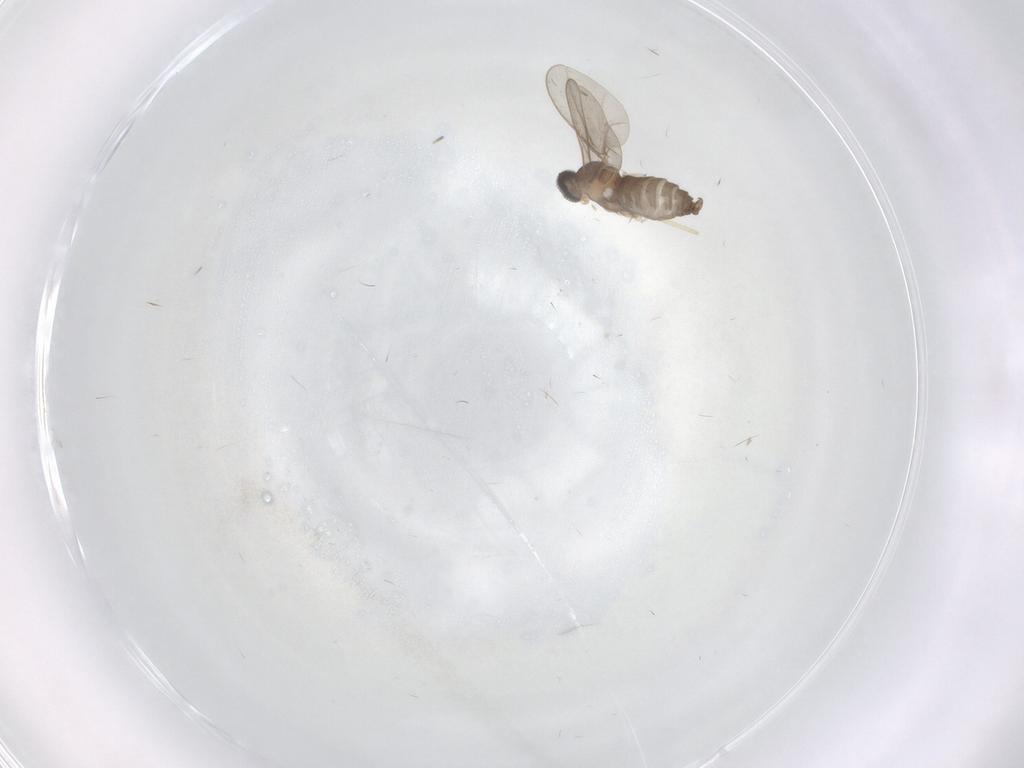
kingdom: Animalia
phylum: Arthropoda
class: Insecta
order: Diptera
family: Cecidomyiidae
